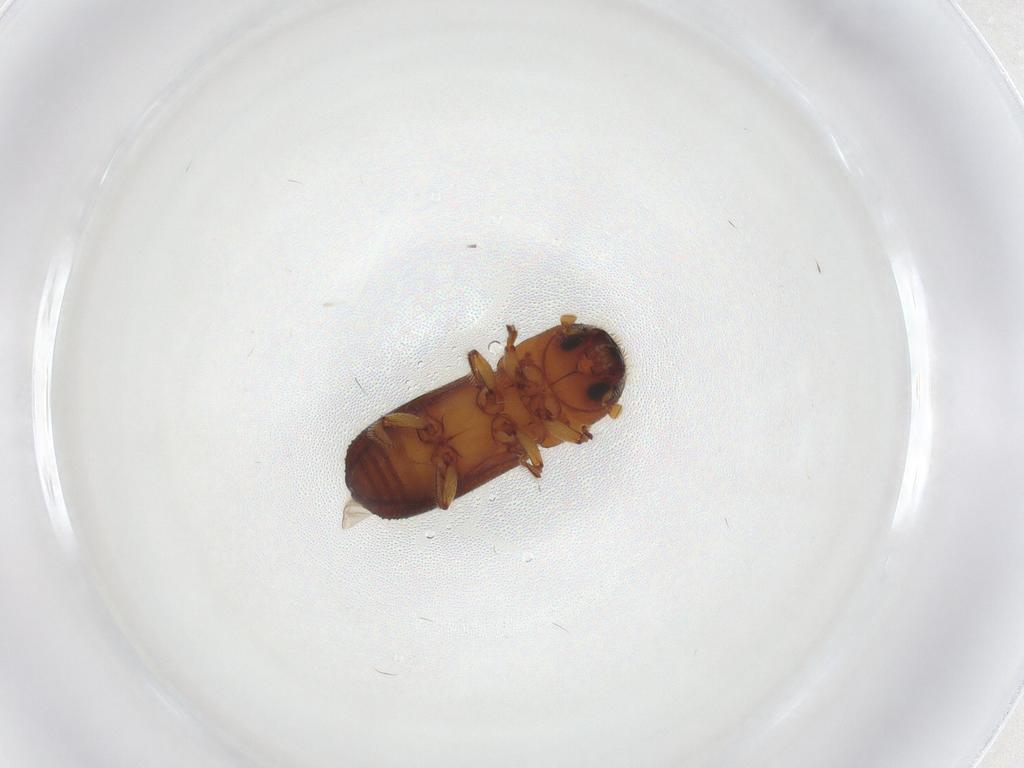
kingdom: Animalia
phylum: Arthropoda
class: Insecta
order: Coleoptera
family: Curculionidae
